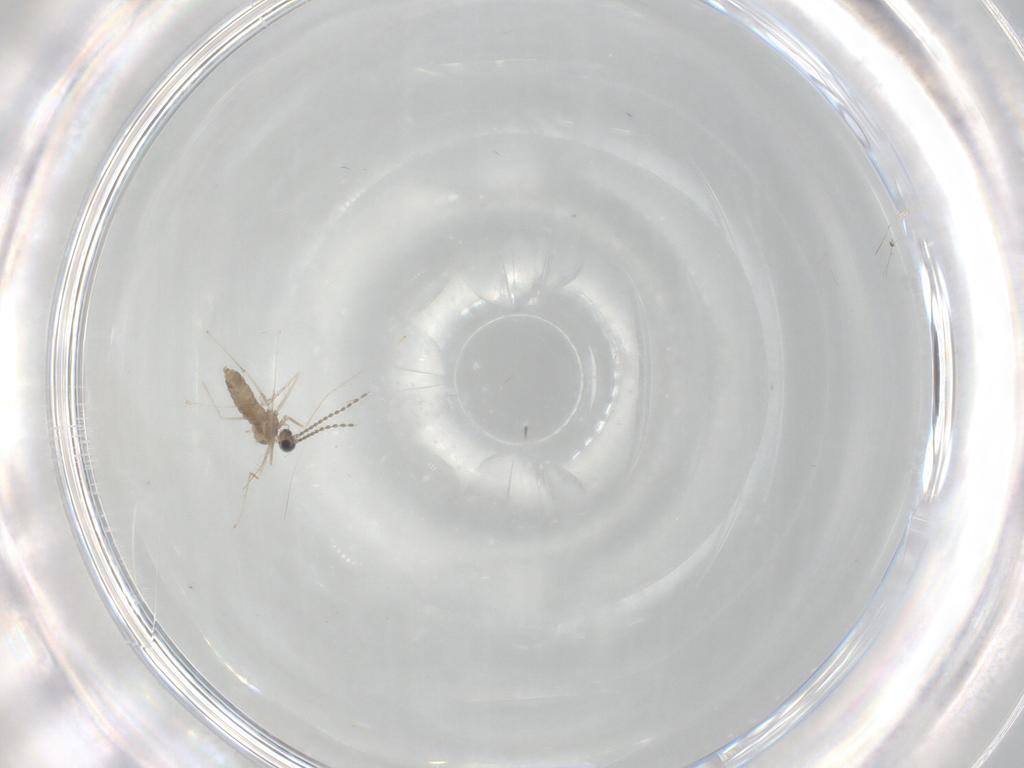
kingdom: Animalia
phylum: Arthropoda
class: Insecta
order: Diptera
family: Cecidomyiidae
